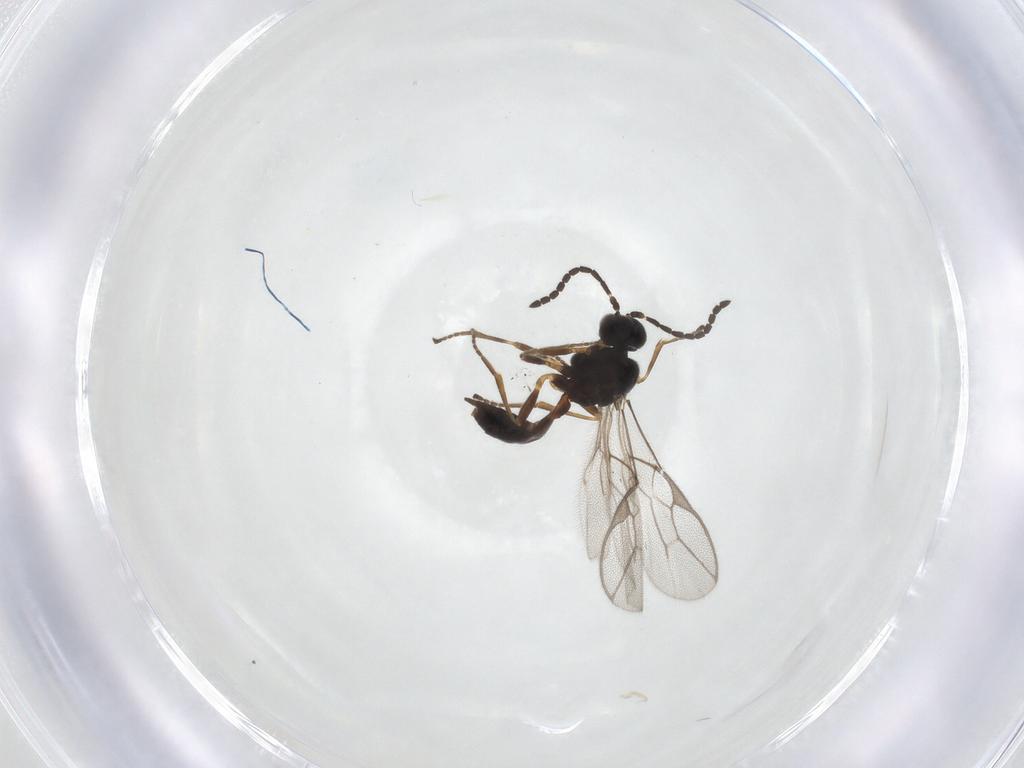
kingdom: Animalia
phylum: Arthropoda
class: Insecta
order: Hymenoptera
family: Braconidae
